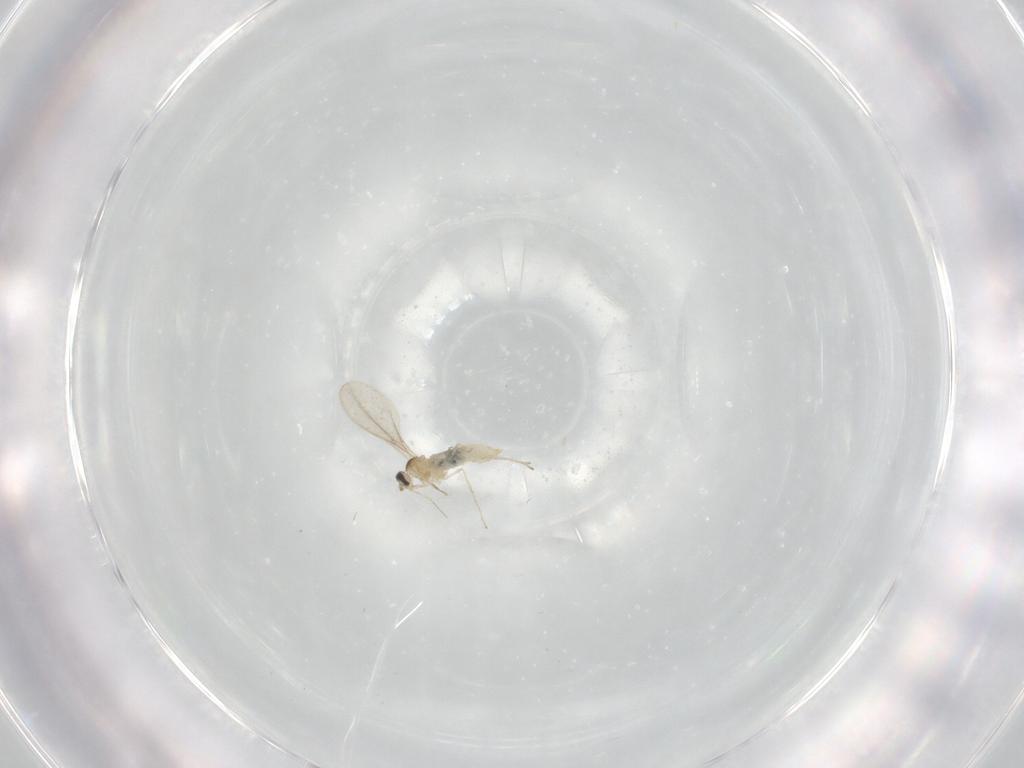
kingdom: Animalia
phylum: Arthropoda
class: Insecta
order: Diptera
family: Cecidomyiidae
